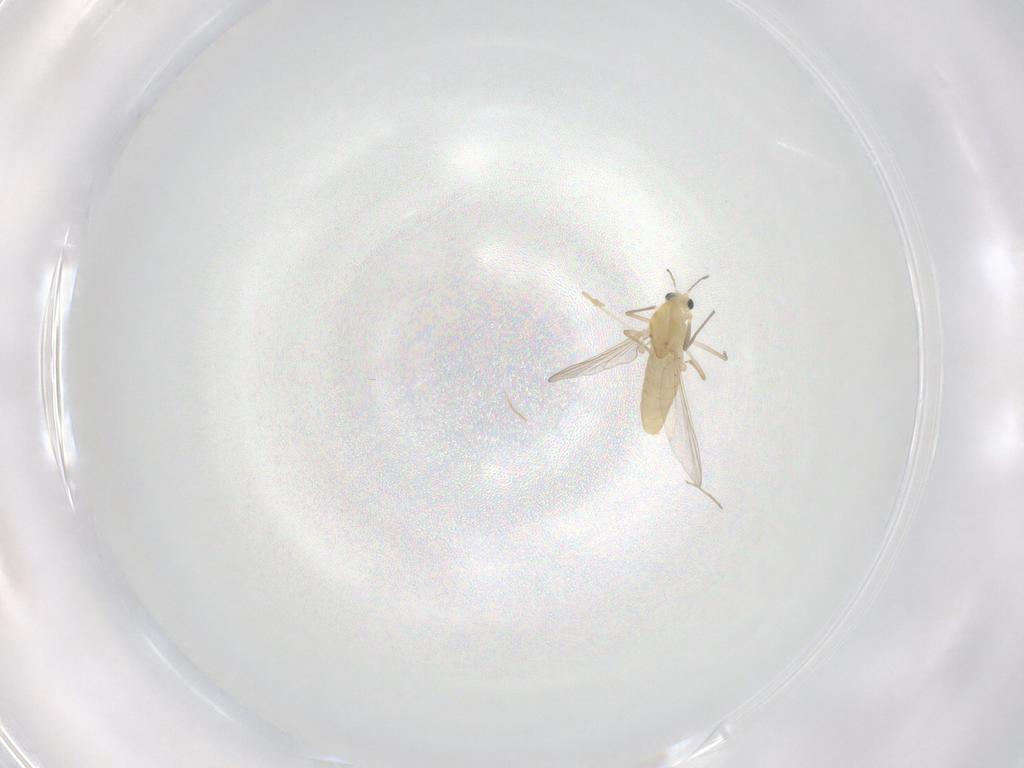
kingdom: Animalia
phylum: Arthropoda
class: Insecta
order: Diptera
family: Chironomidae
